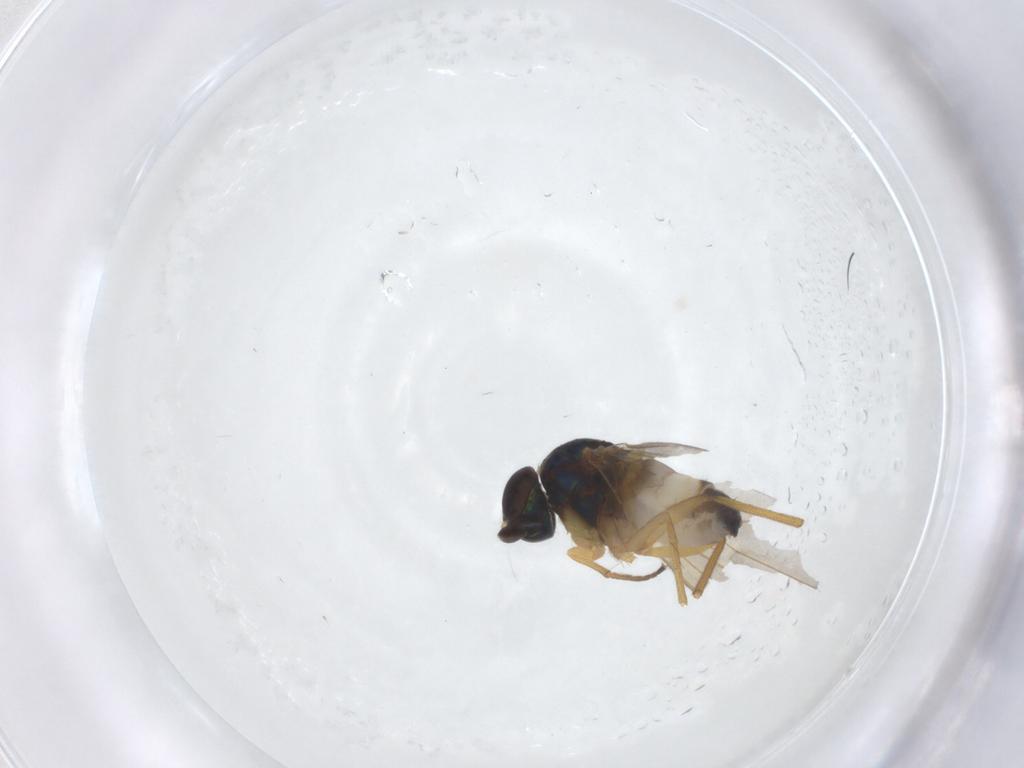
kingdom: Animalia
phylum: Arthropoda
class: Insecta
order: Diptera
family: Dolichopodidae
